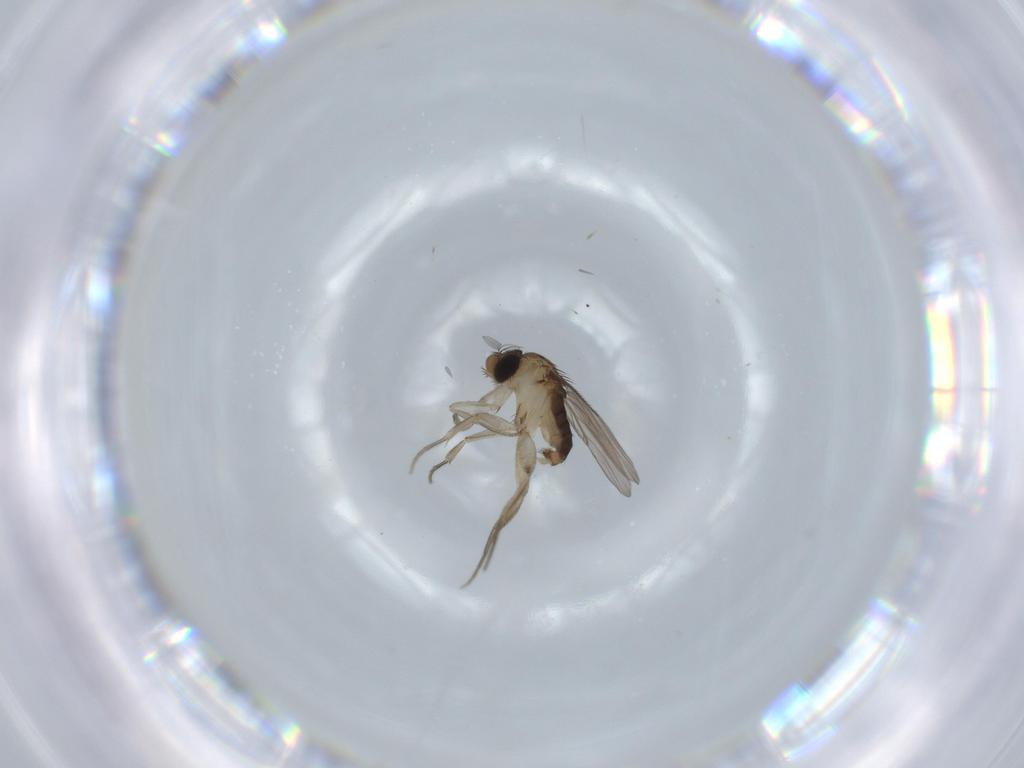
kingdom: Animalia
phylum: Arthropoda
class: Insecta
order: Diptera
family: Phoridae
